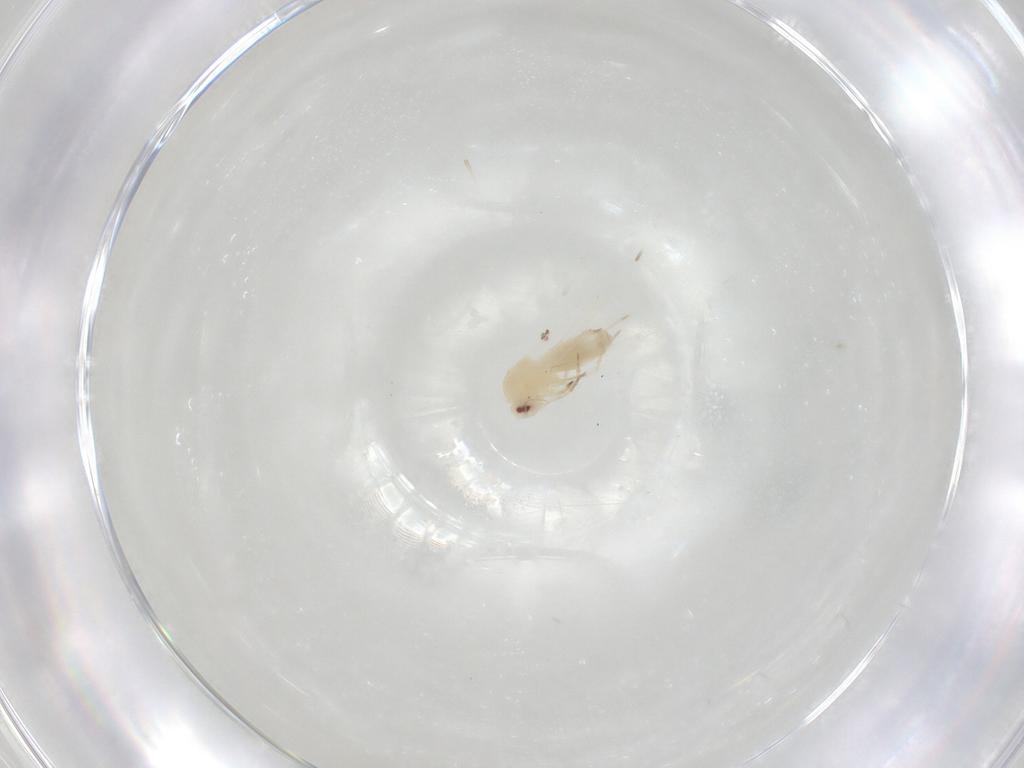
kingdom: Animalia
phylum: Arthropoda
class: Insecta
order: Hemiptera
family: Aleyrodidae
